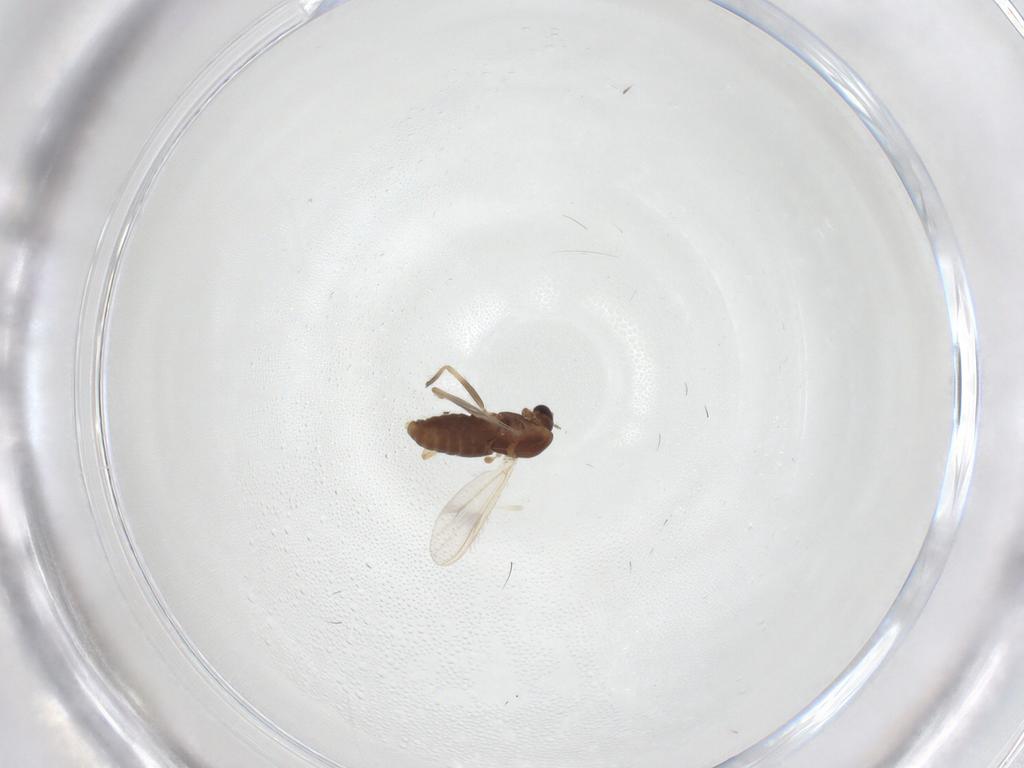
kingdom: Animalia
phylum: Arthropoda
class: Insecta
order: Diptera
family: Chironomidae
